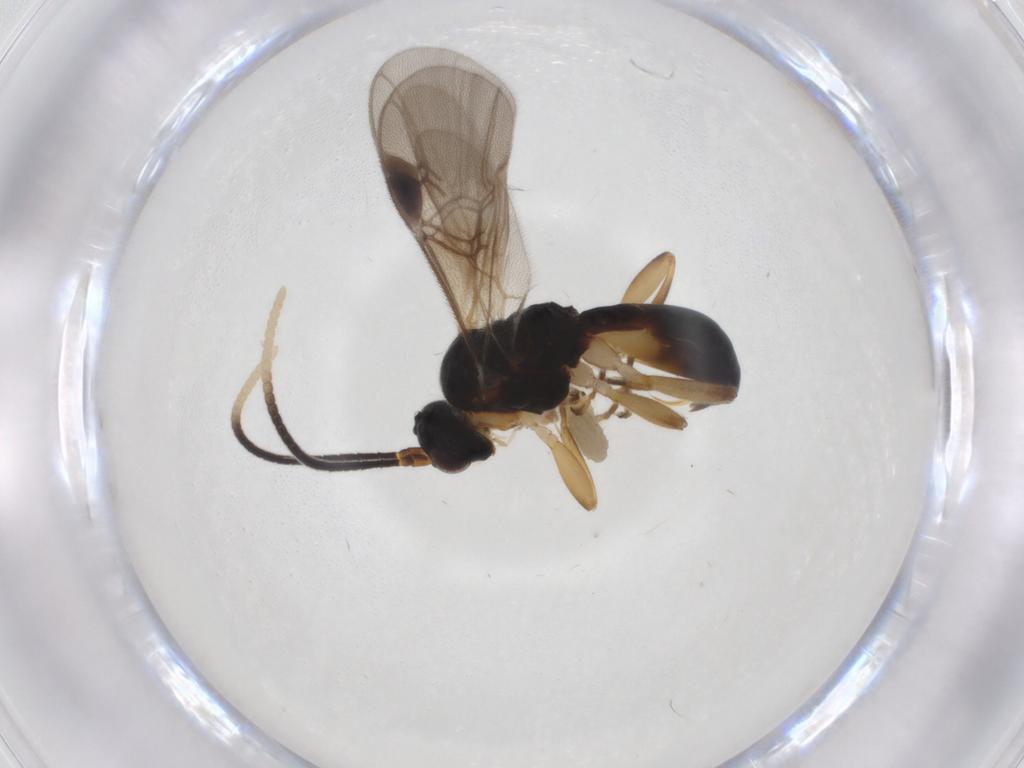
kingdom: Animalia
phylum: Arthropoda
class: Insecta
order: Hymenoptera
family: Braconidae
